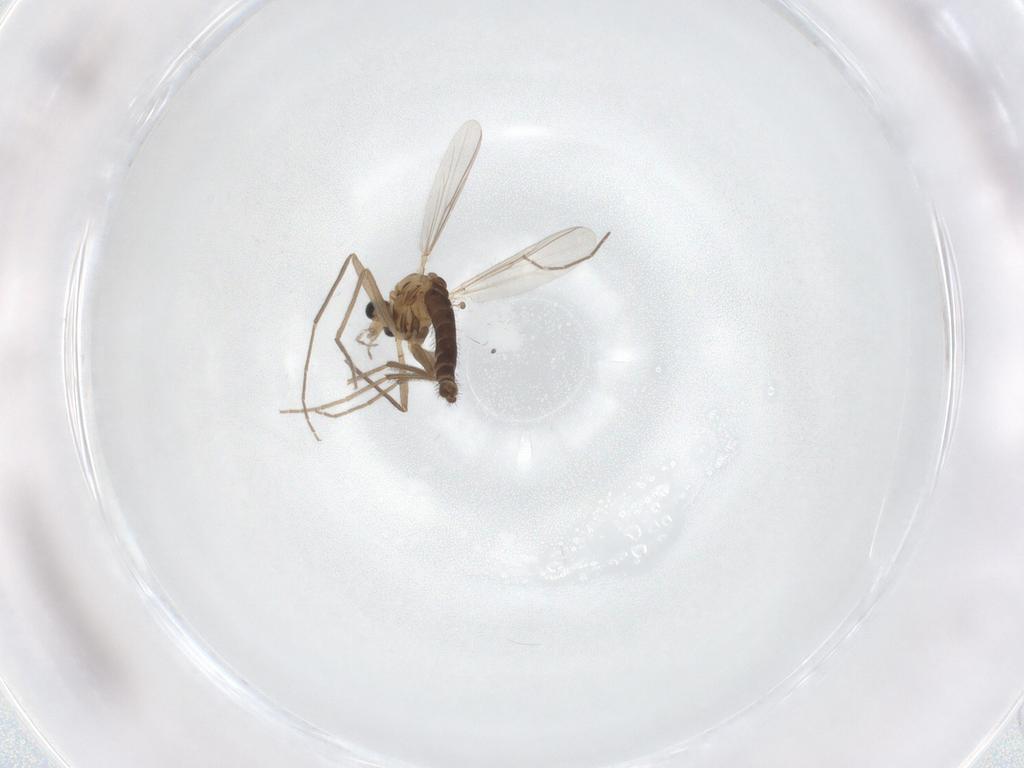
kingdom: Animalia
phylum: Arthropoda
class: Insecta
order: Diptera
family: Chironomidae
